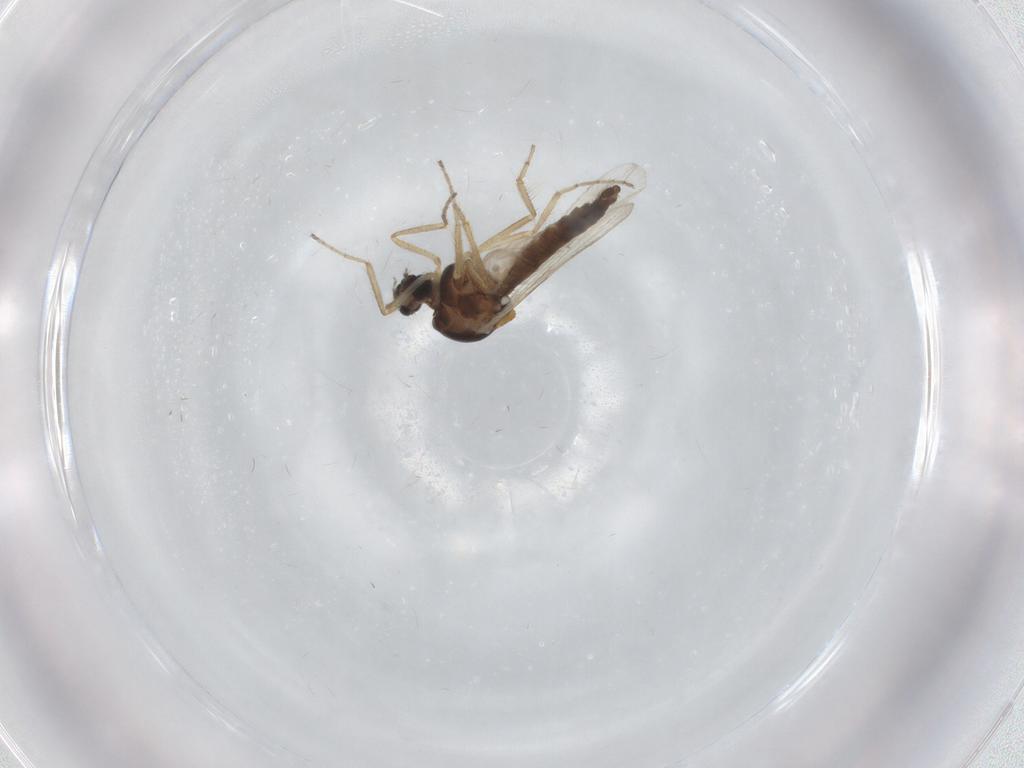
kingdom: Animalia
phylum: Arthropoda
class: Insecta
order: Diptera
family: Ceratopogonidae
